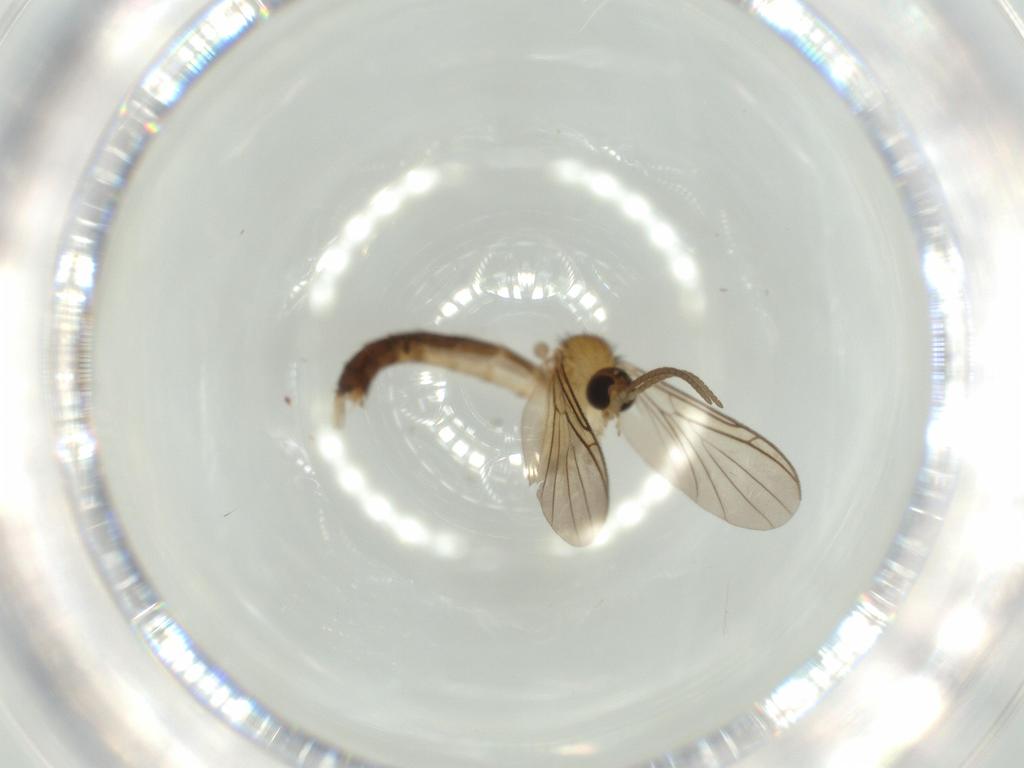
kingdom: Animalia
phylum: Arthropoda
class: Insecta
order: Diptera
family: Keroplatidae
